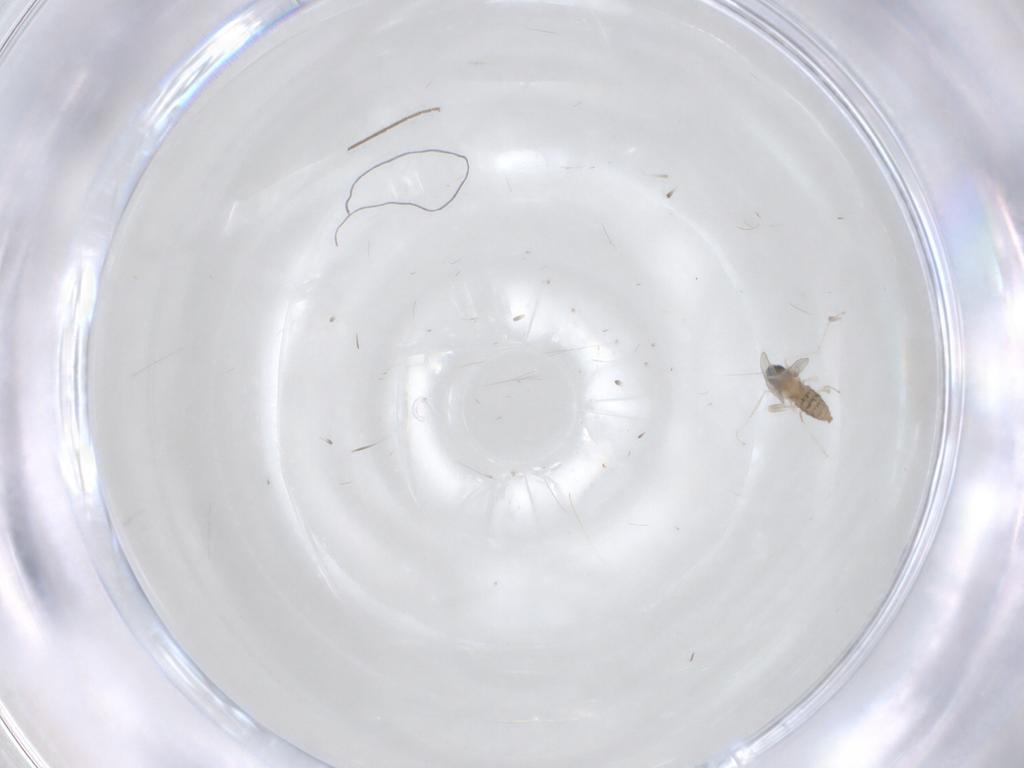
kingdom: Animalia
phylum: Arthropoda
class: Insecta
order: Diptera
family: Cecidomyiidae
